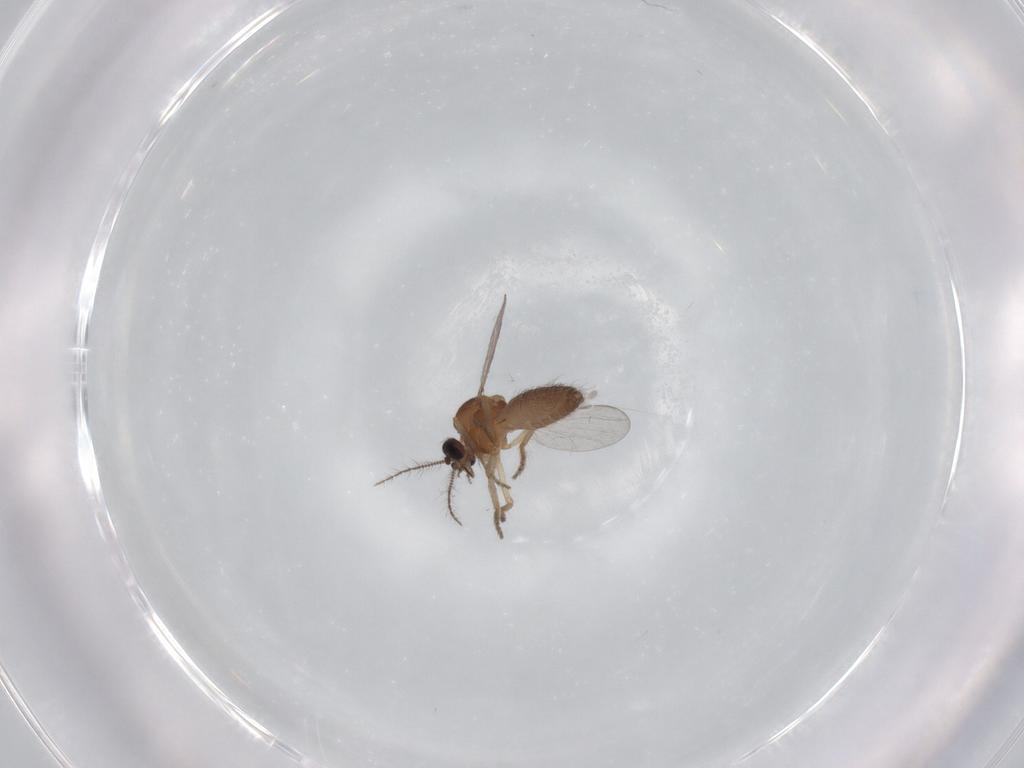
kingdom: Animalia
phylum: Arthropoda
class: Insecta
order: Diptera
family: Ceratopogonidae
